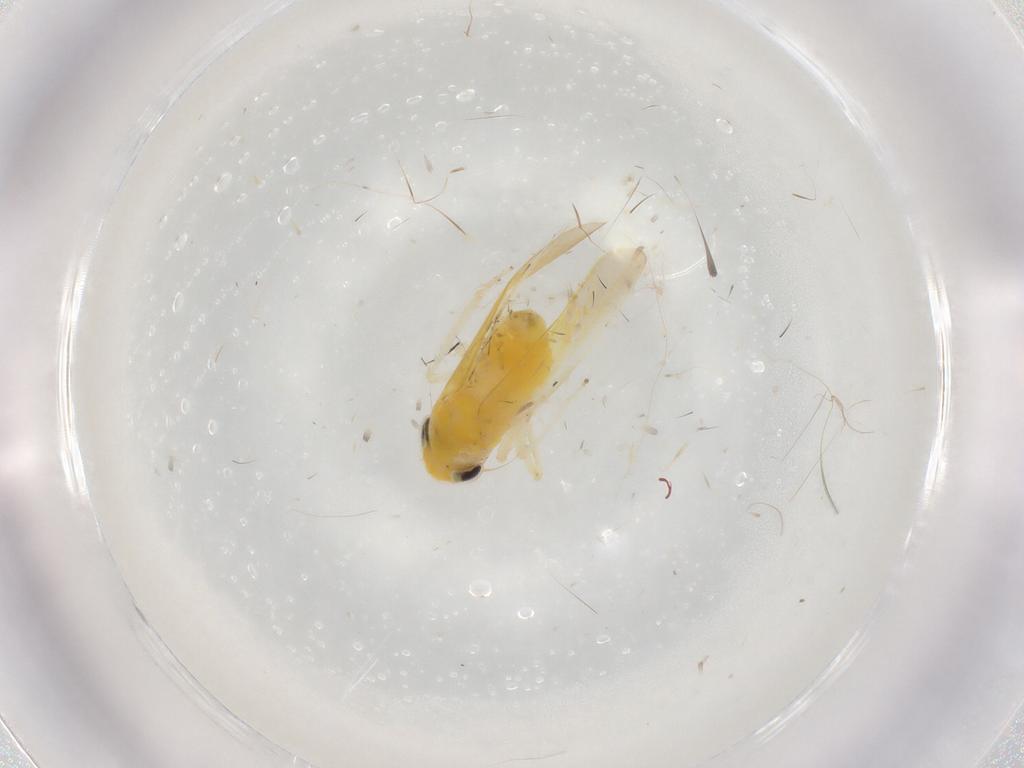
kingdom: Animalia
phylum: Arthropoda
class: Insecta
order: Hemiptera
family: Cicadellidae
